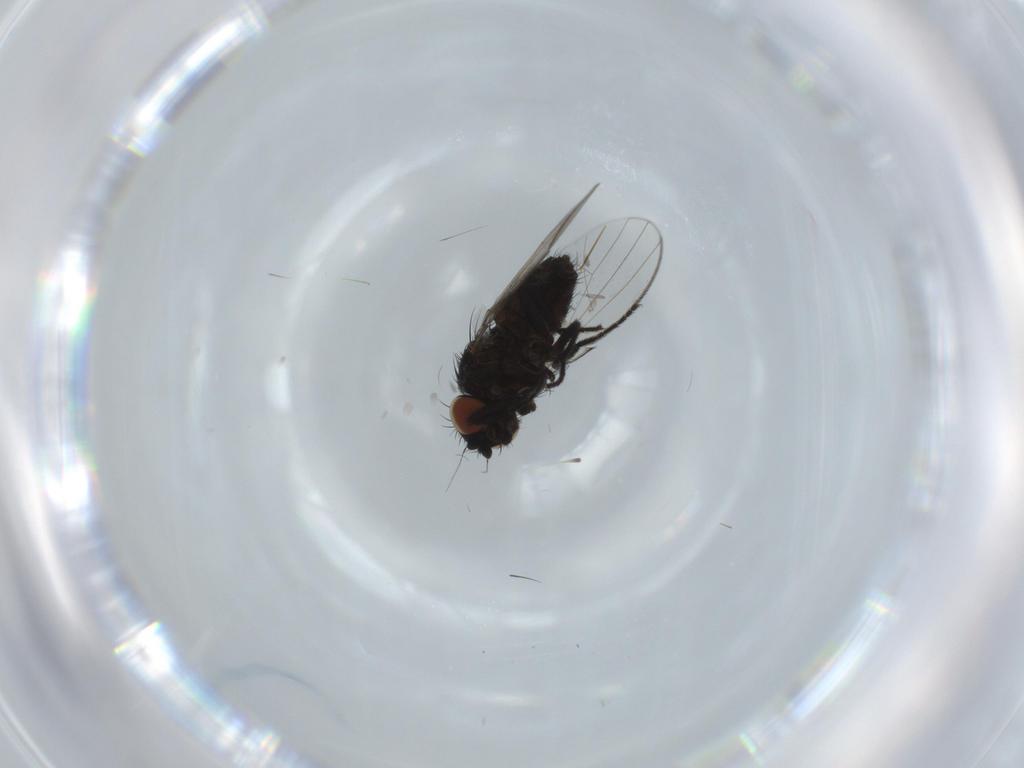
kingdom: Animalia
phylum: Arthropoda
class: Insecta
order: Diptera
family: Milichiidae
